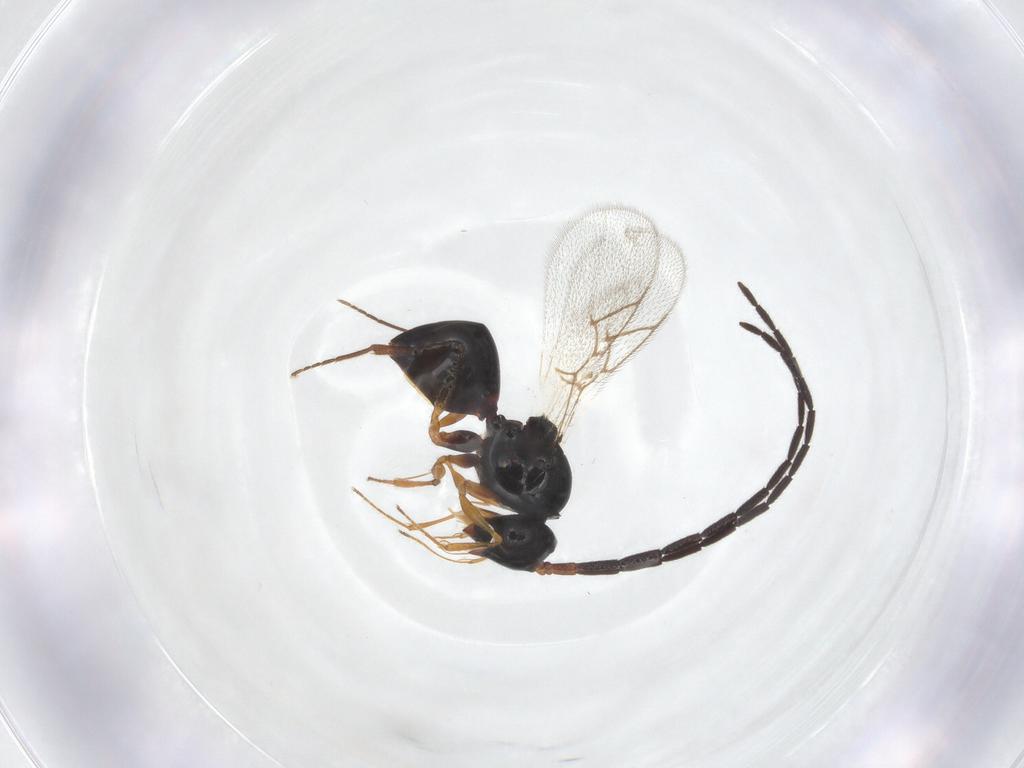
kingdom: Animalia
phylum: Arthropoda
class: Insecta
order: Hymenoptera
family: Figitidae
